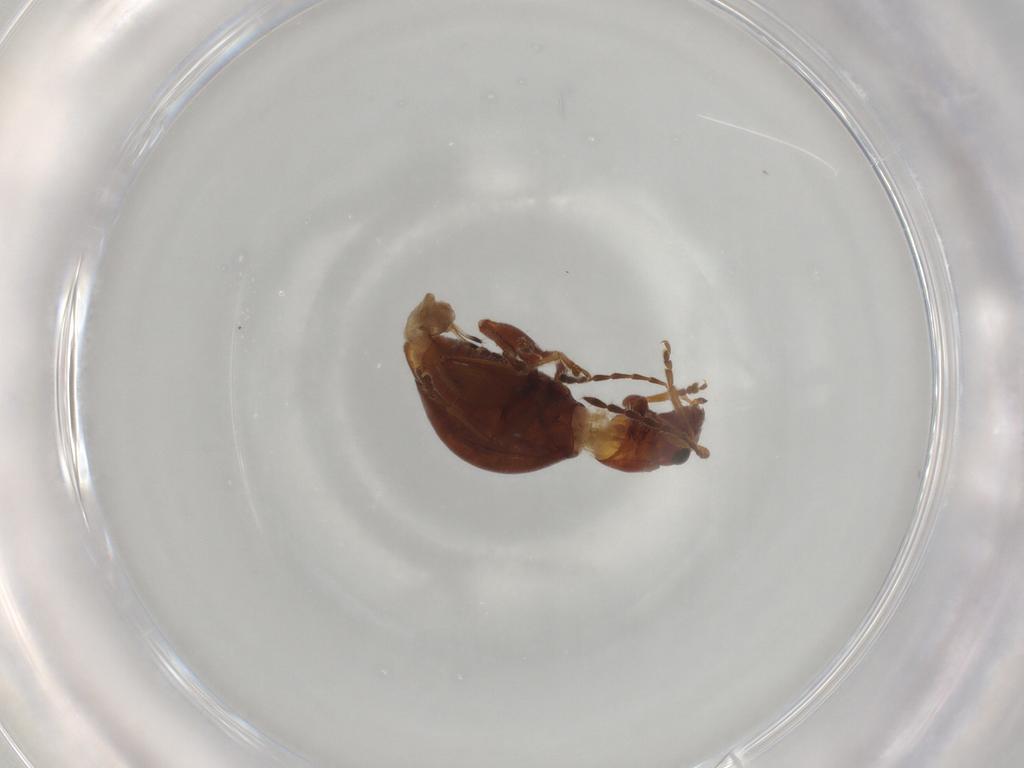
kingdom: Animalia
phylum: Arthropoda
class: Insecta
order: Coleoptera
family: Chrysomelidae
